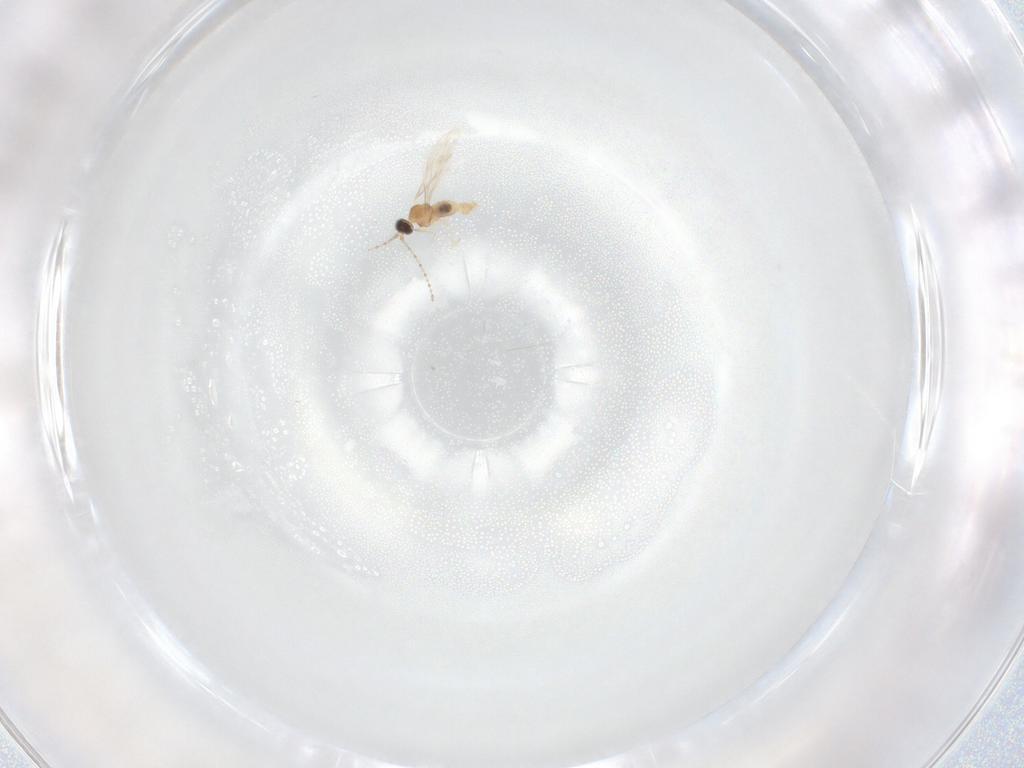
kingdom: Animalia
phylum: Arthropoda
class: Insecta
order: Diptera
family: Cecidomyiidae
